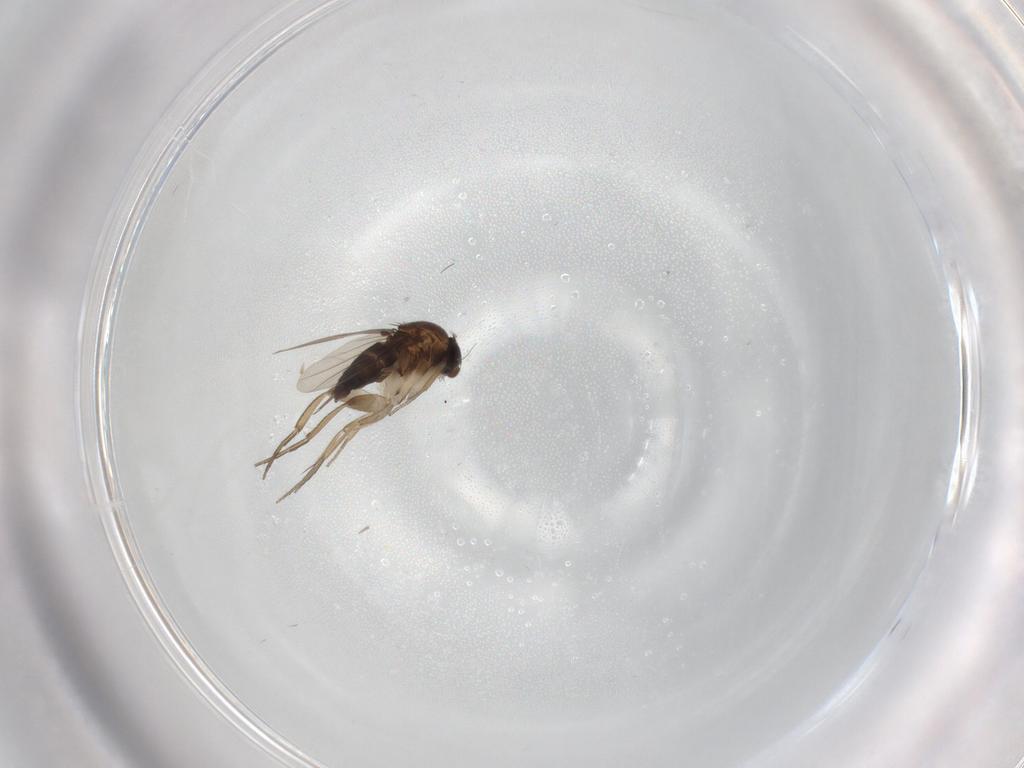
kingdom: Animalia
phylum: Arthropoda
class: Insecta
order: Diptera
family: Phoridae
